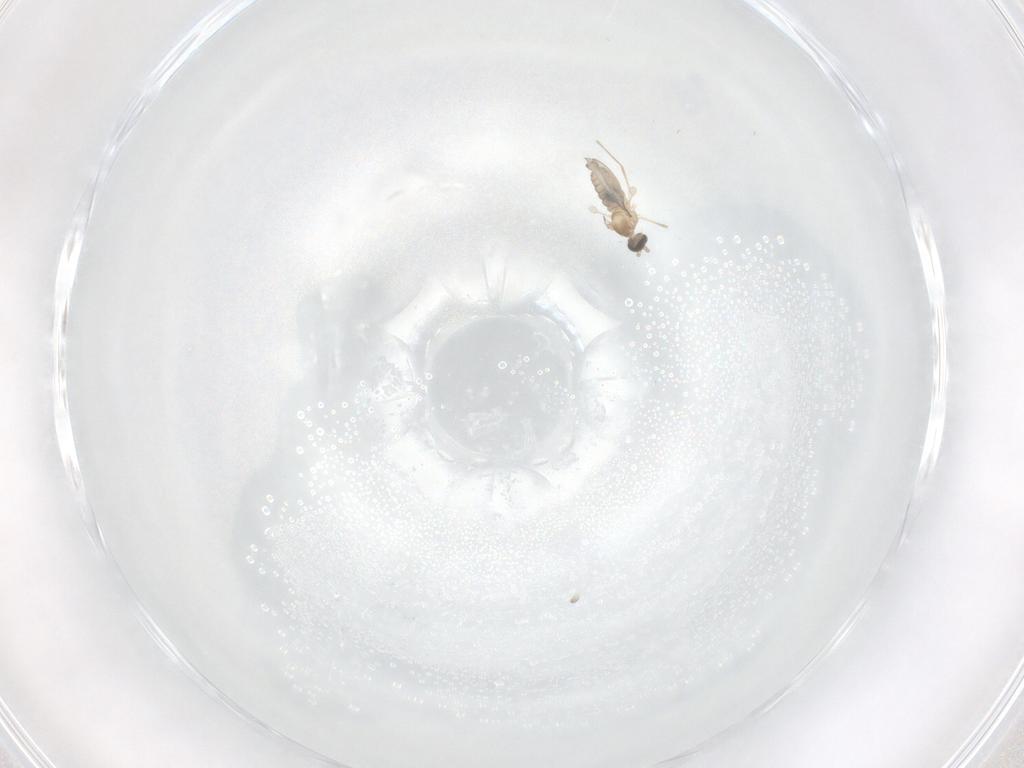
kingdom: Animalia
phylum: Arthropoda
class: Insecta
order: Diptera
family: Cecidomyiidae
